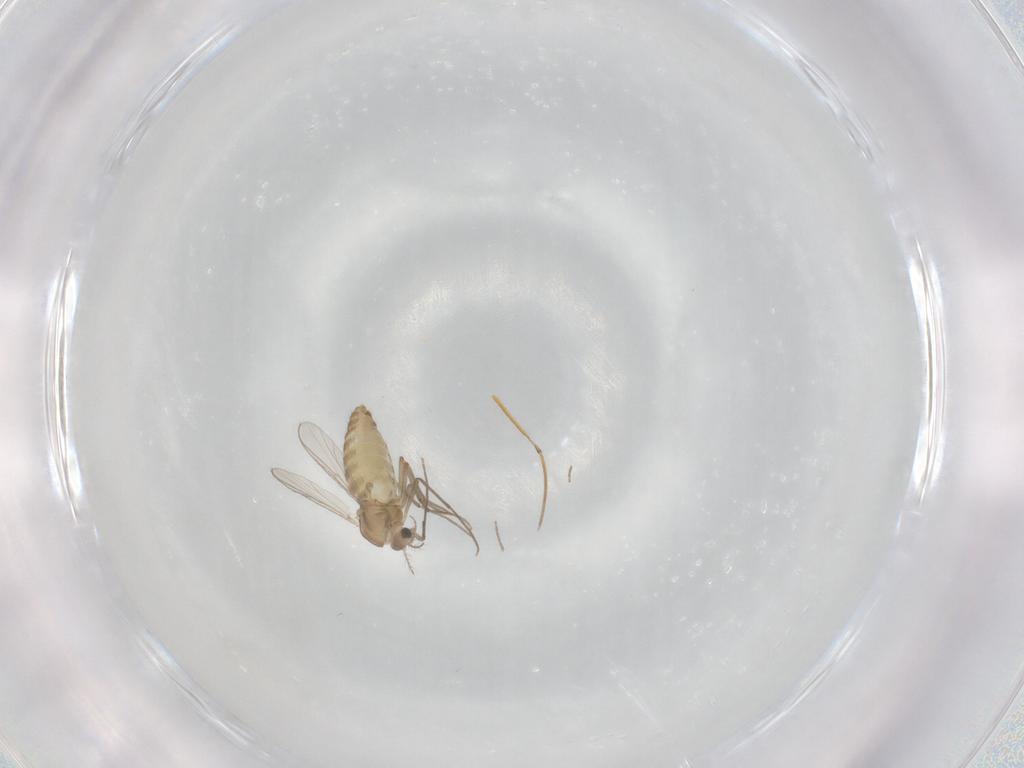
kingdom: Animalia
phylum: Arthropoda
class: Insecta
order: Diptera
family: Chironomidae
